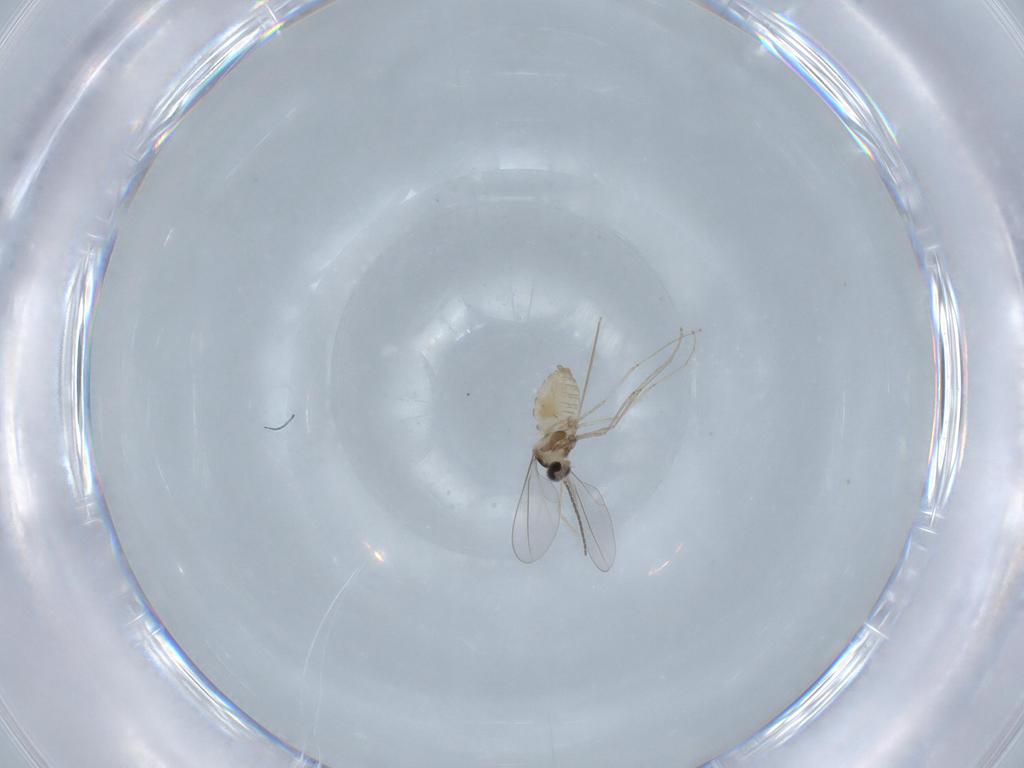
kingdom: Animalia
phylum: Arthropoda
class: Insecta
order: Diptera
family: Cecidomyiidae
